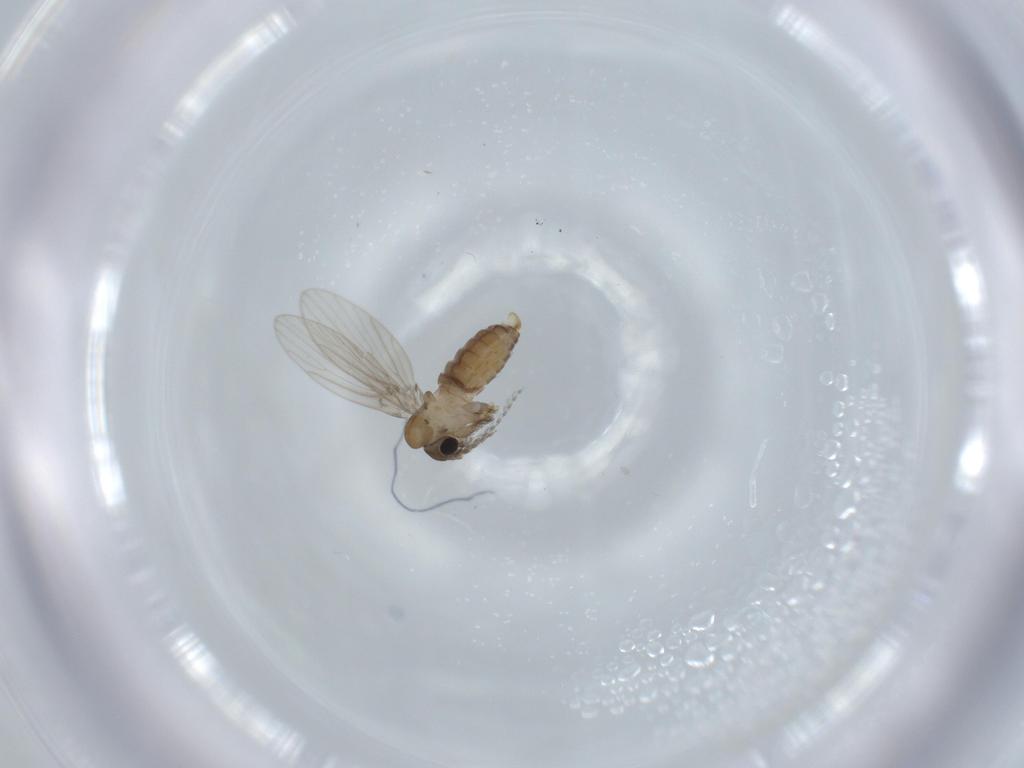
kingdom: Animalia
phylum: Arthropoda
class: Insecta
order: Diptera
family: Psychodidae
